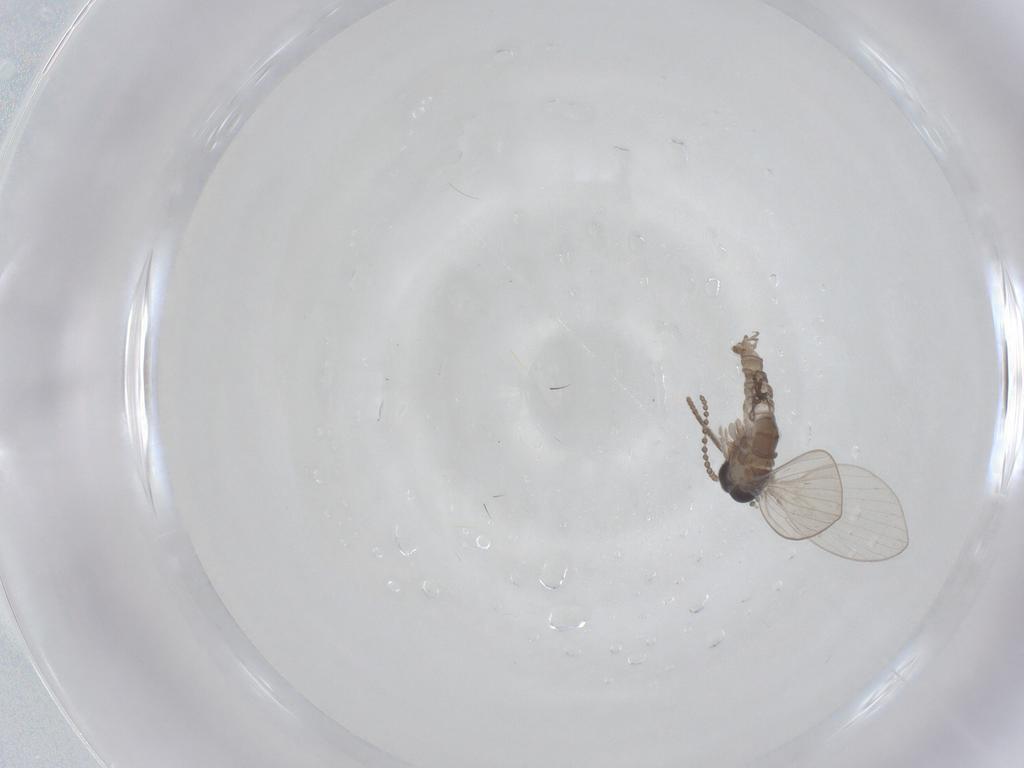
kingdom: Animalia
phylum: Arthropoda
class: Insecta
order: Diptera
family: Psychodidae
